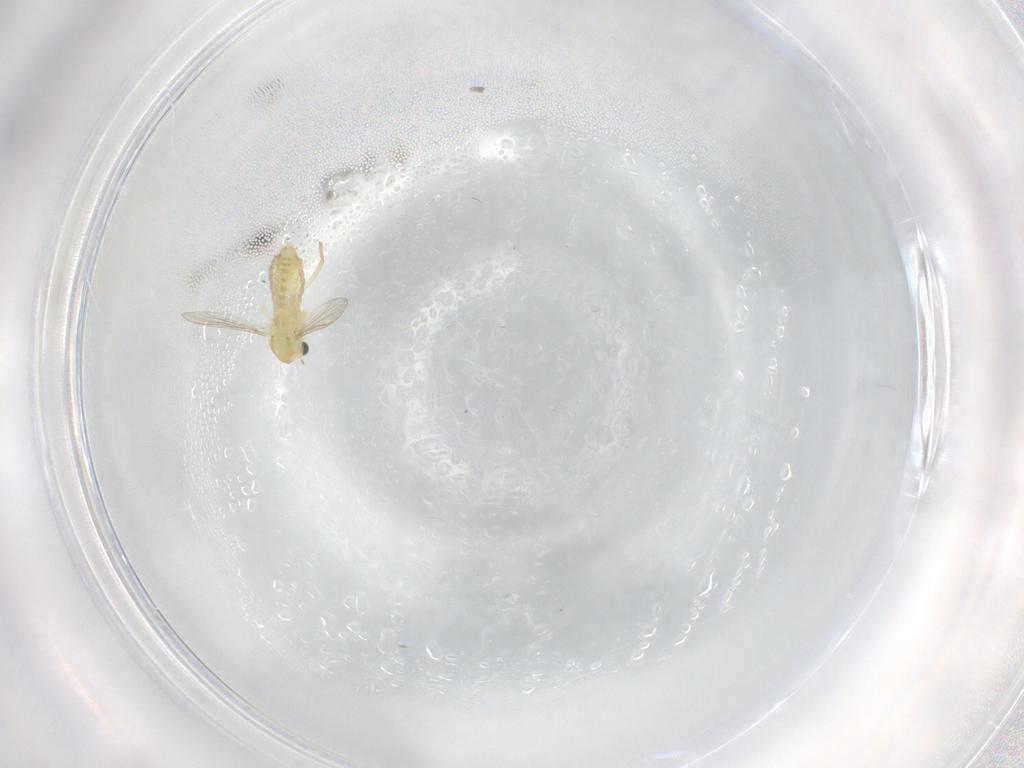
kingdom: Animalia
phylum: Arthropoda
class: Insecta
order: Diptera
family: Chironomidae
